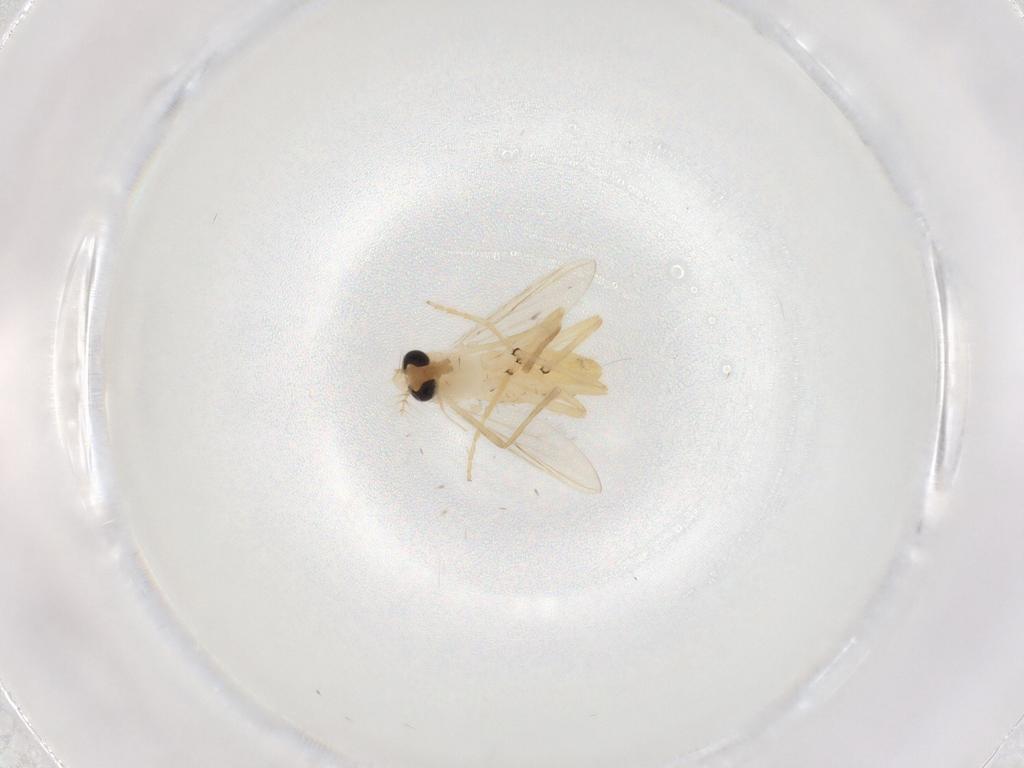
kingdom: Animalia
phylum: Arthropoda
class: Insecta
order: Diptera
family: Chironomidae
